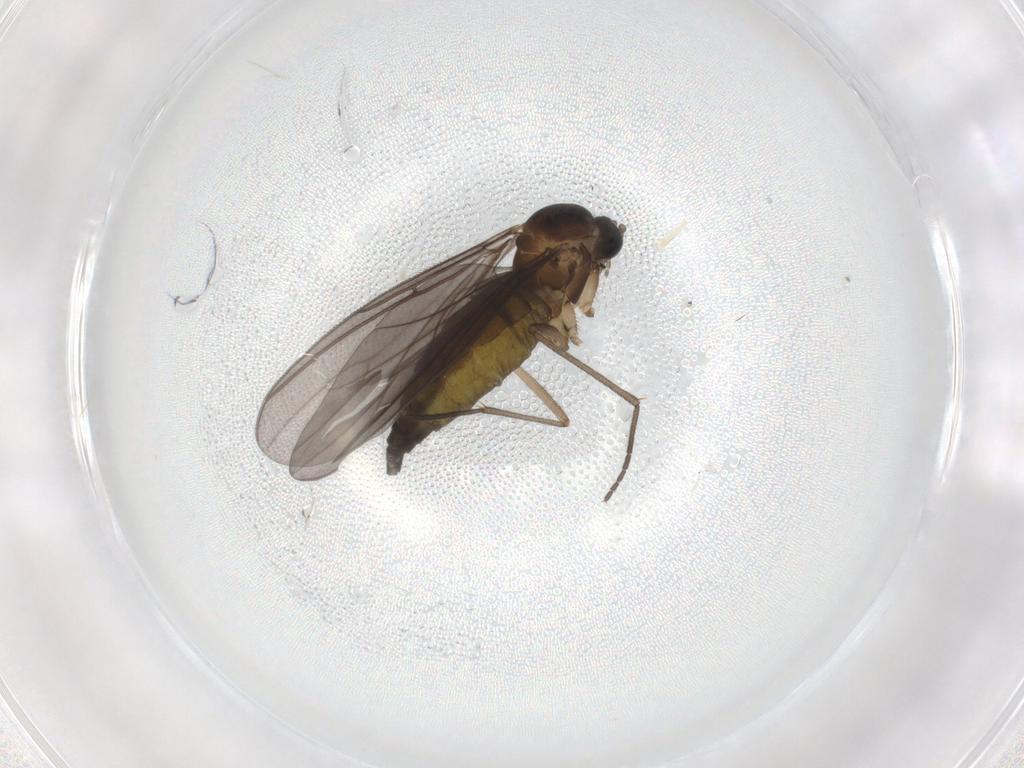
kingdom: Animalia
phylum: Arthropoda
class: Insecta
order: Diptera
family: Sciaridae
